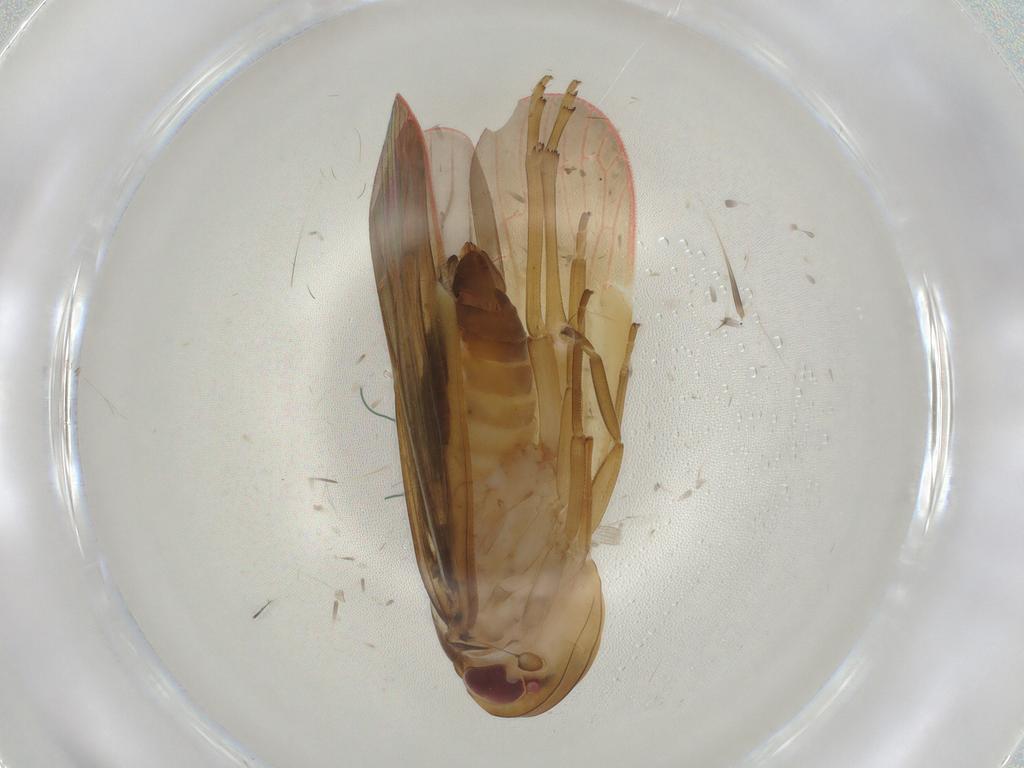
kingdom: Animalia
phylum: Arthropoda
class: Insecta
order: Hemiptera
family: Achilidae
